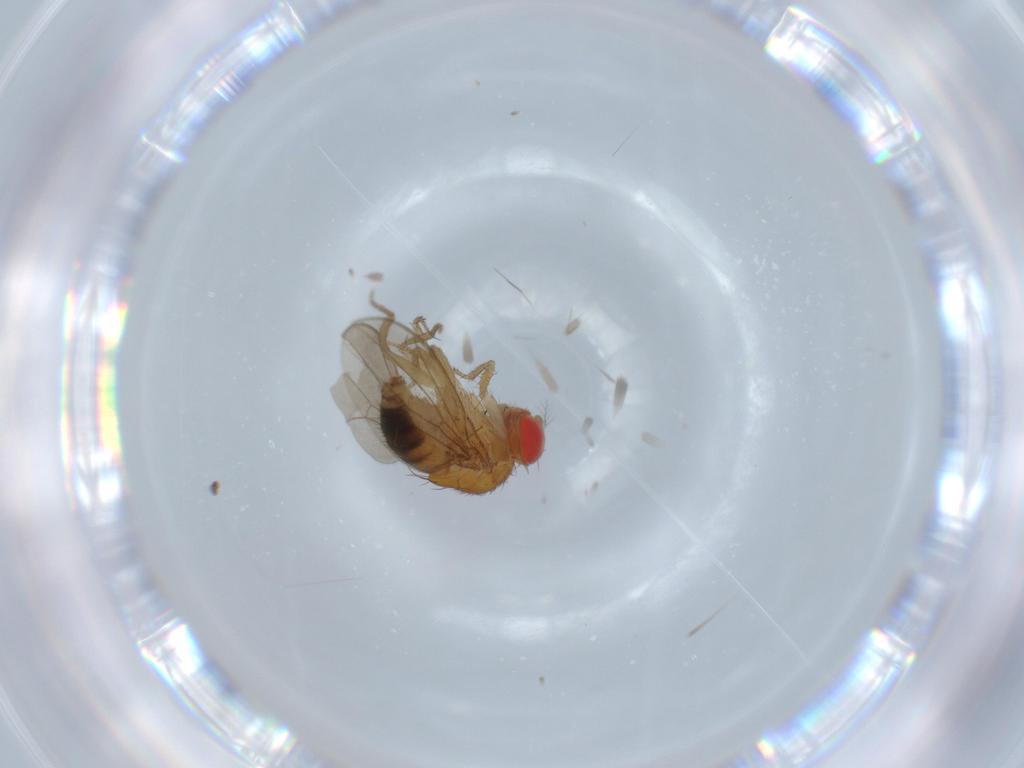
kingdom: Animalia
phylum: Arthropoda
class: Insecta
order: Diptera
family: Drosophilidae
